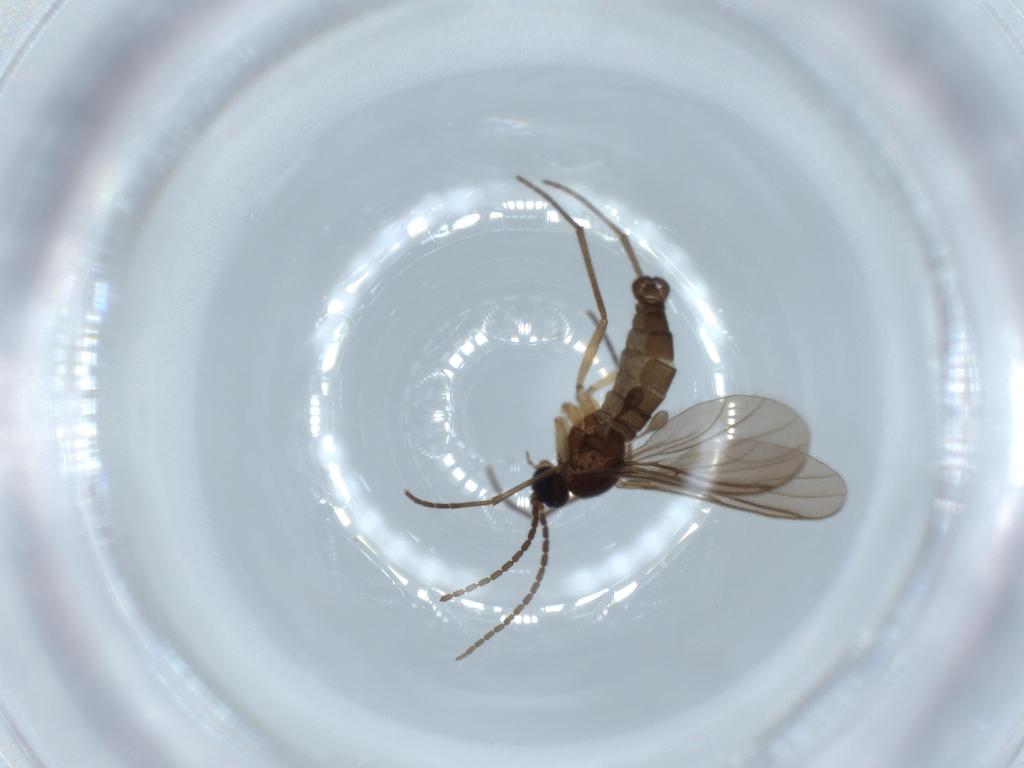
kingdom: Animalia
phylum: Arthropoda
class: Insecta
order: Diptera
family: Sciaridae
